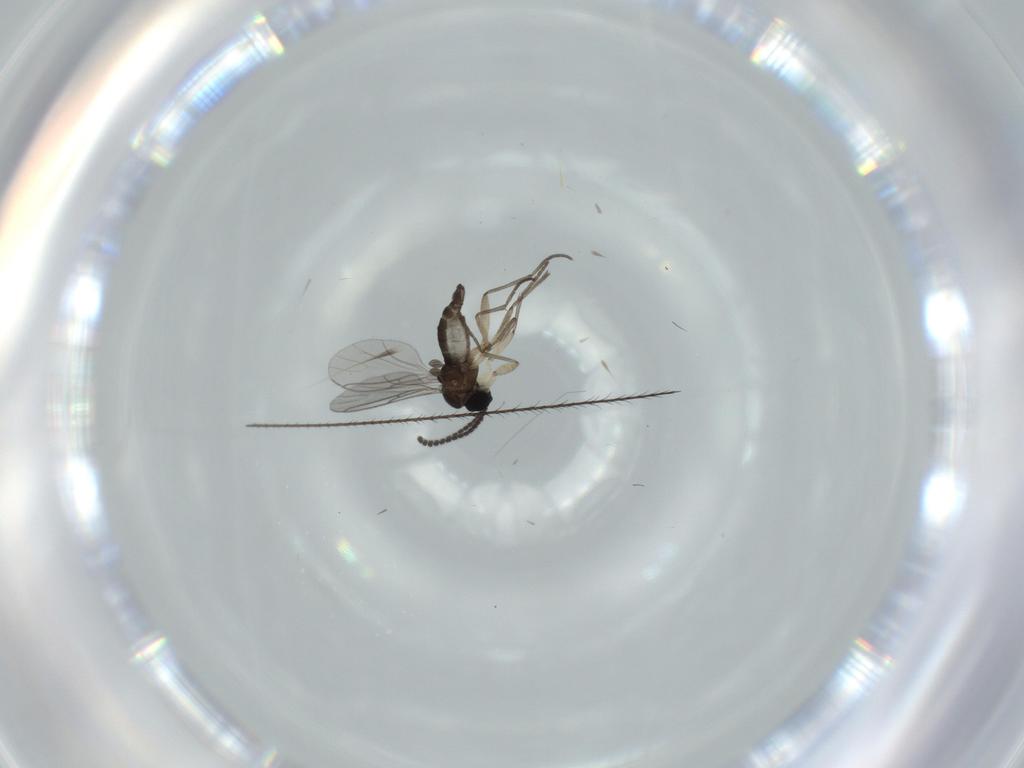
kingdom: Animalia
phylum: Arthropoda
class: Insecta
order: Diptera
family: Sciaridae
